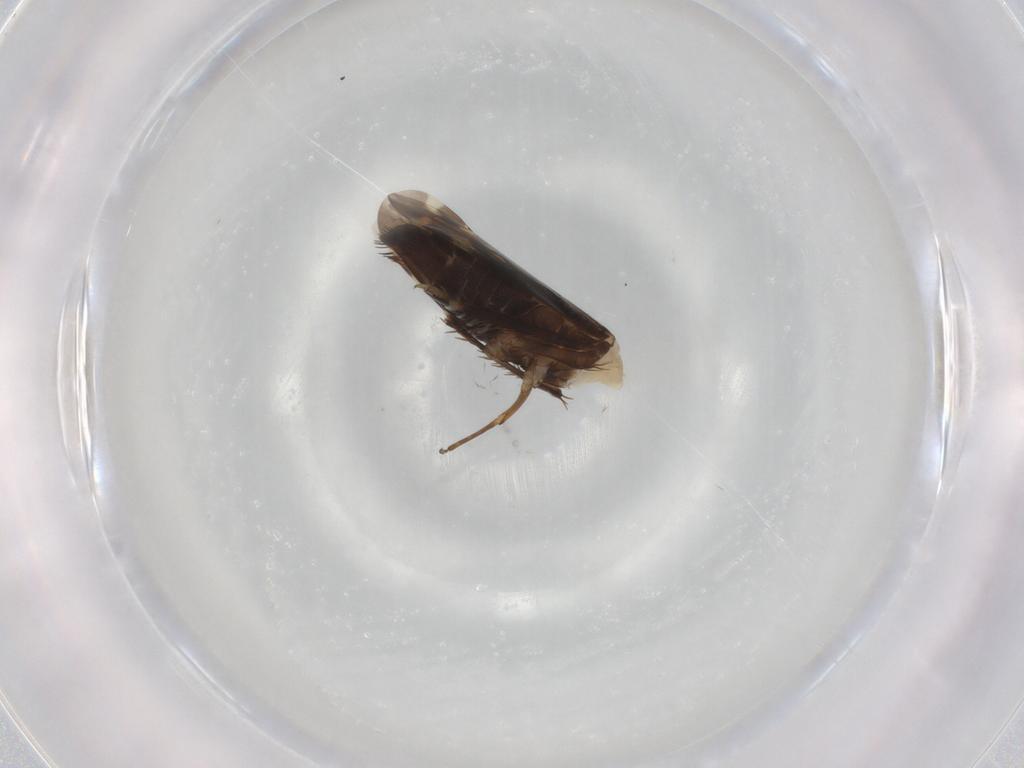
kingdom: Animalia
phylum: Arthropoda
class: Insecta
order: Hemiptera
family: Cicadellidae
